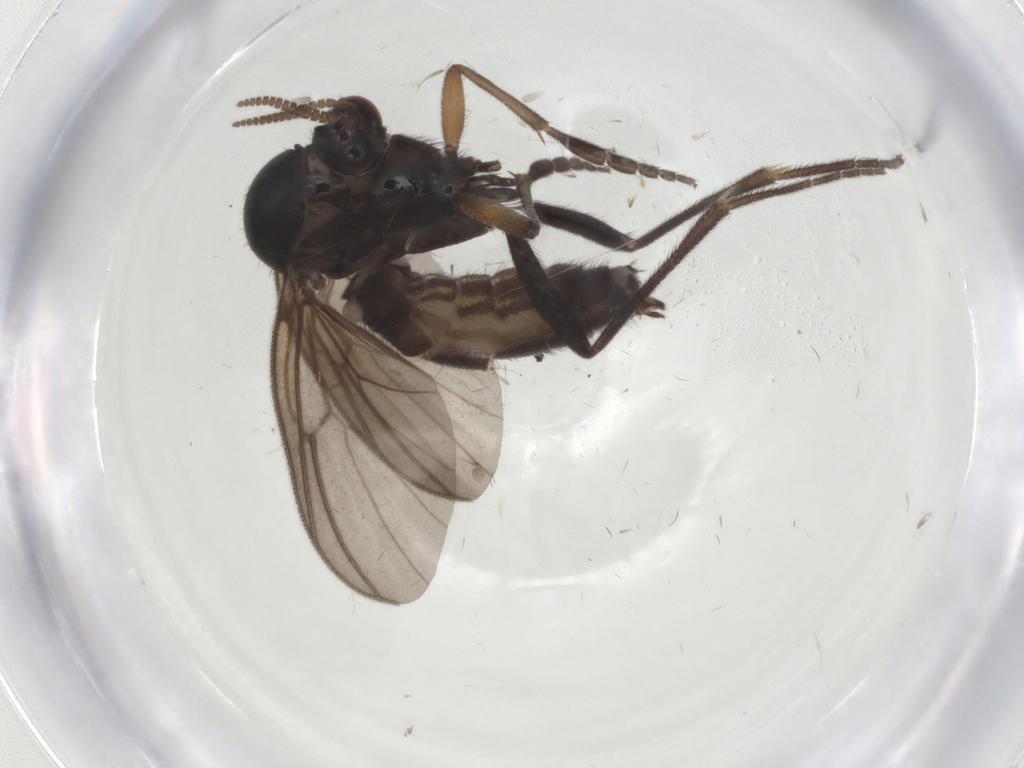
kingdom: Animalia
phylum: Arthropoda
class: Insecta
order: Diptera
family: Mycetophilidae
